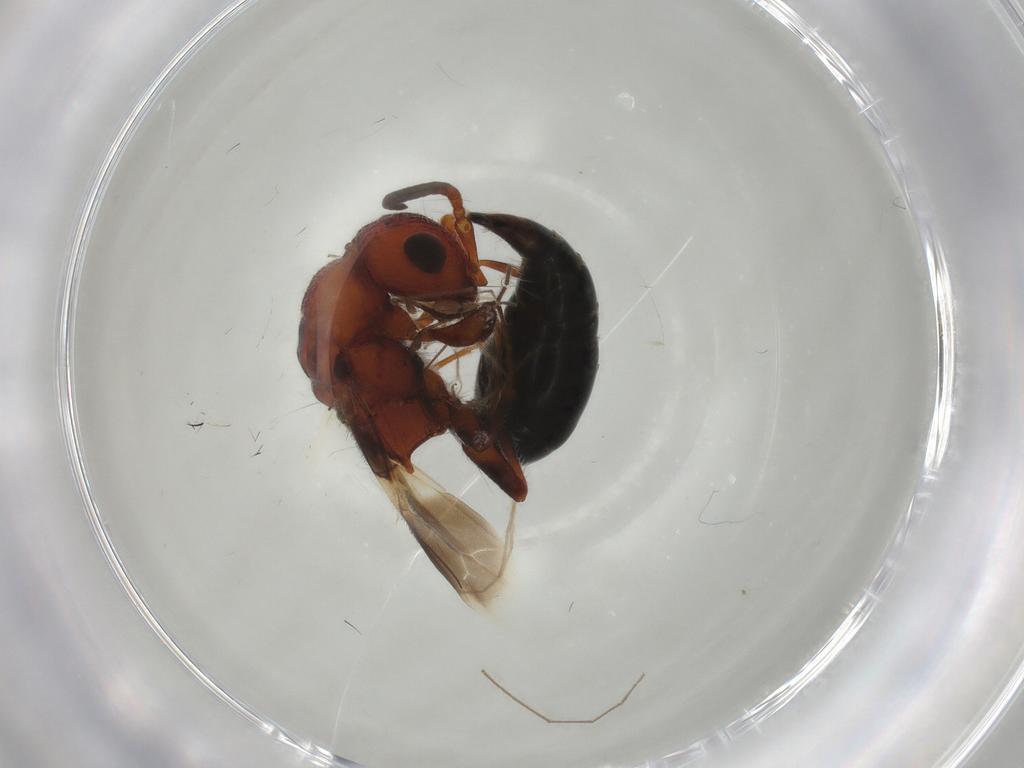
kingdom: Animalia
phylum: Arthropoda
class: Insecta
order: Hymenoptera
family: Bethylidae
